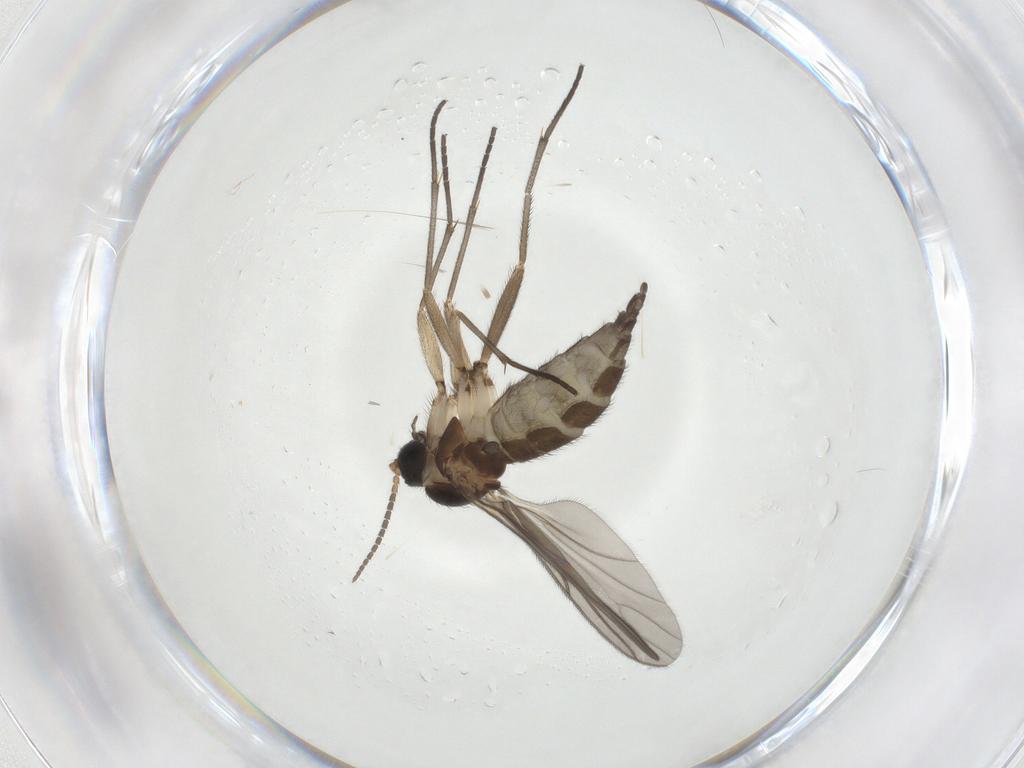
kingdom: Animalia
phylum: Arthropoda
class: Insecta
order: Diptera
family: Sciaridae
